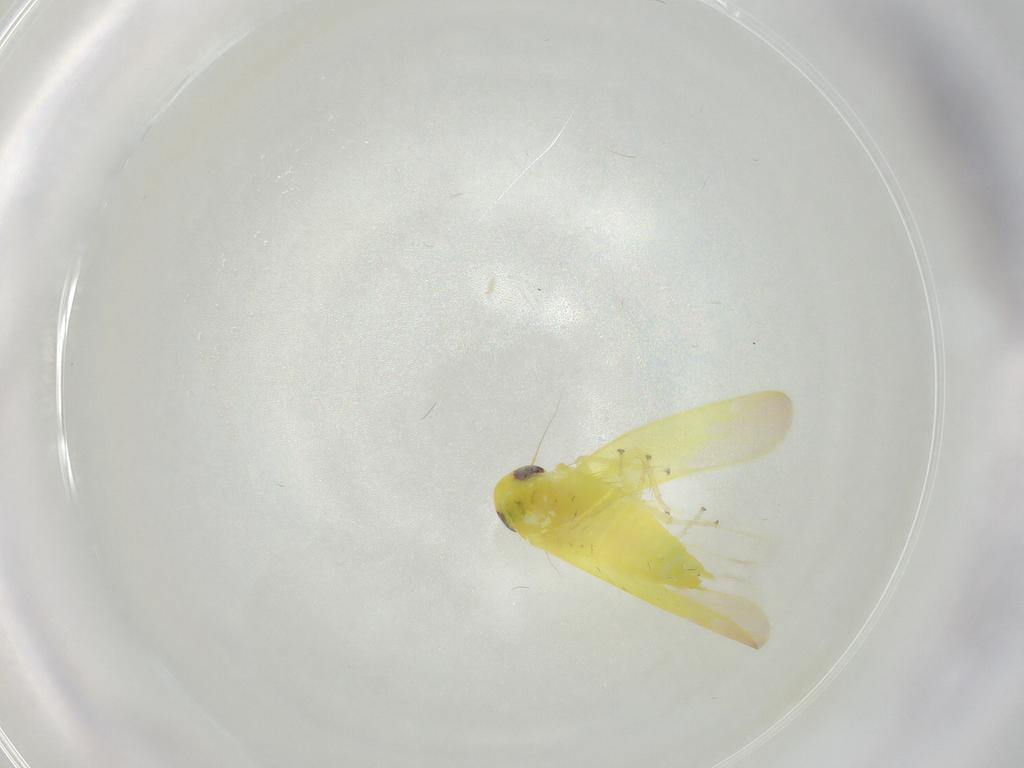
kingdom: Animalia
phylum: Arthropoda
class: Insecta
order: Hemiptera
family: Cicadellidae
